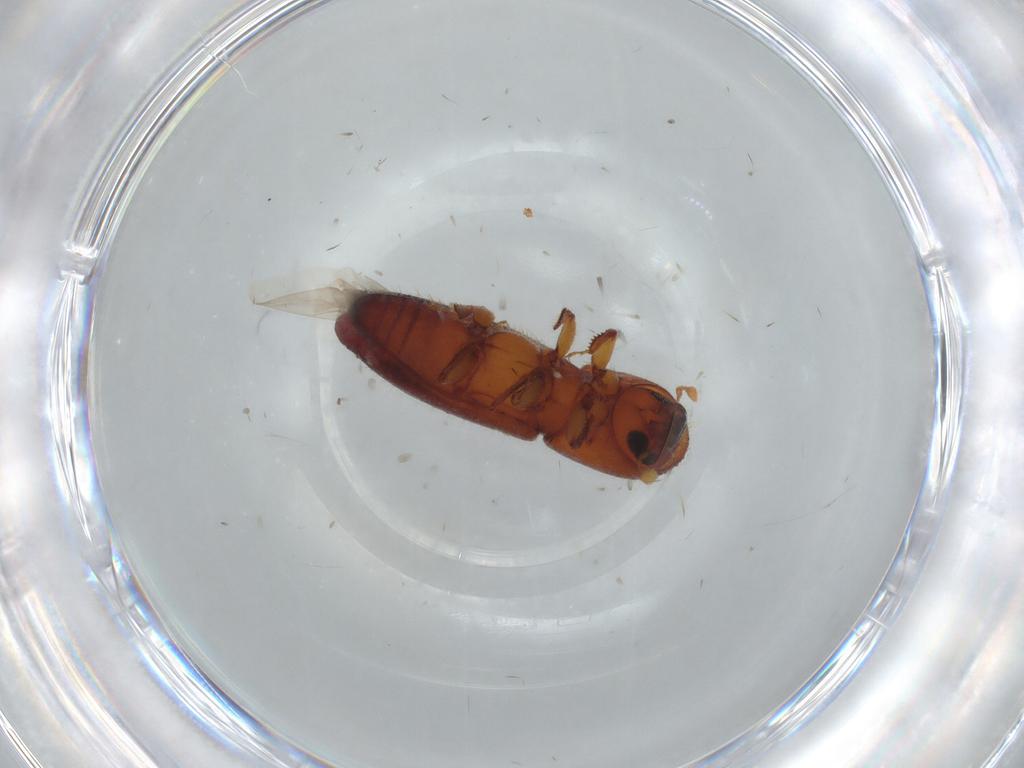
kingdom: Animalia
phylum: Arthropoda
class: Insecta
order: Coleoptera
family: Curculionidae
